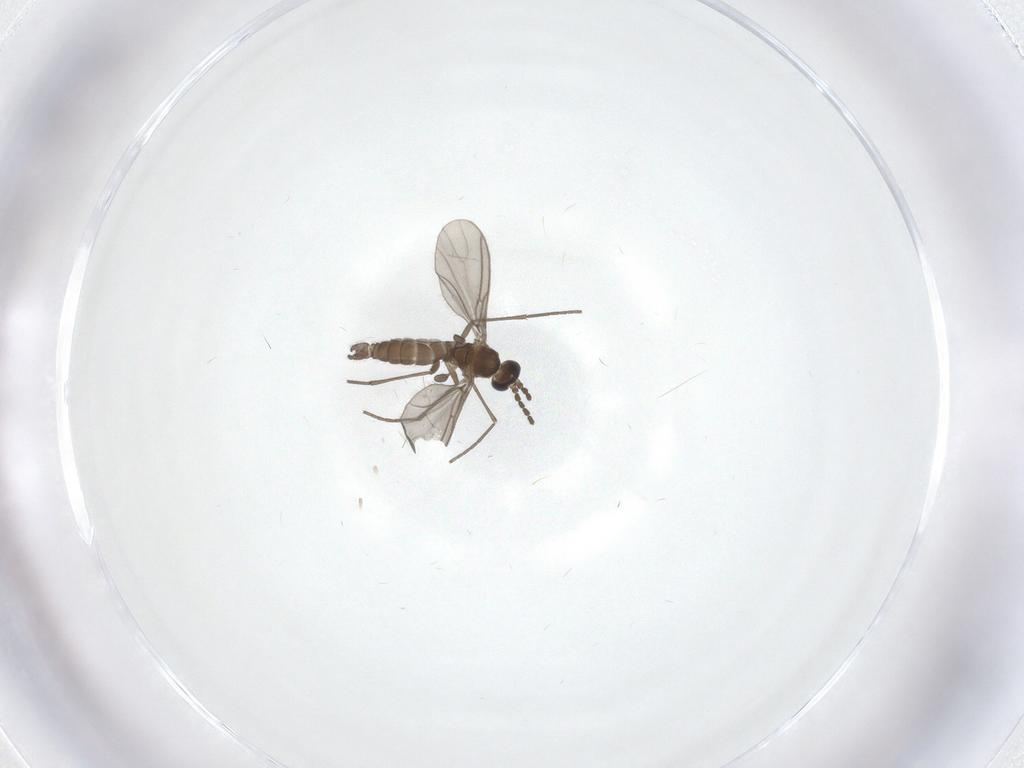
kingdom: Animalia
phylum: Arthropoda
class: Insecta
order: Diptera
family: Sciaridae
